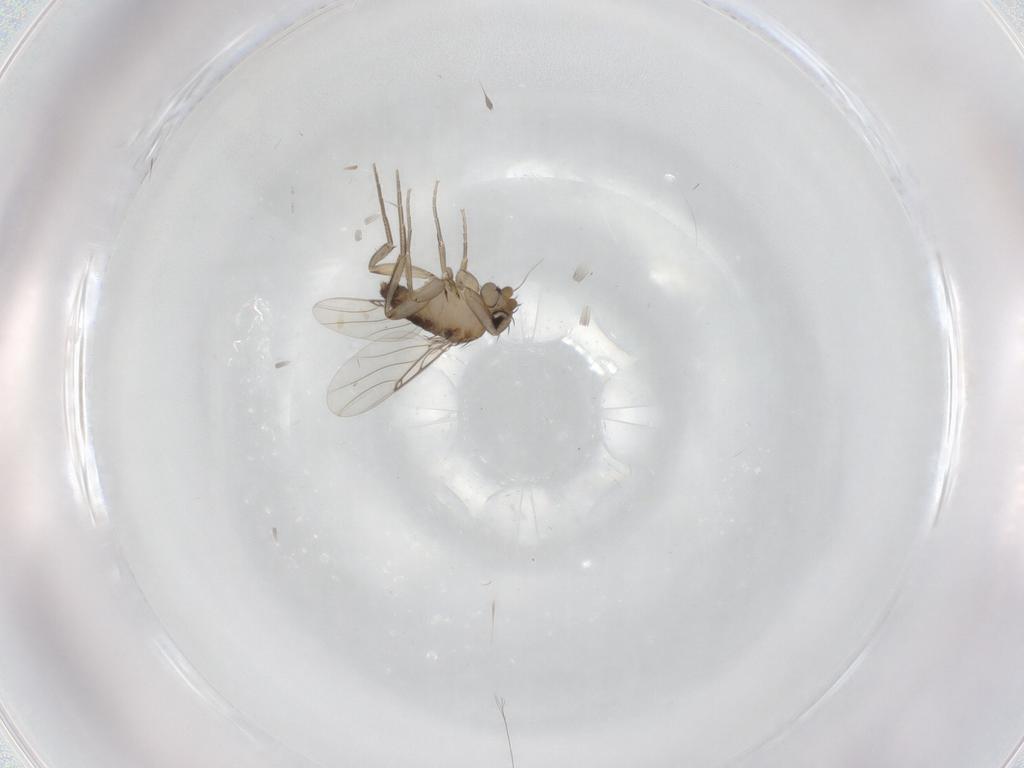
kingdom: Animalia
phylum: Arthropoda
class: Insecta
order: Diptera
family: Phoridae
